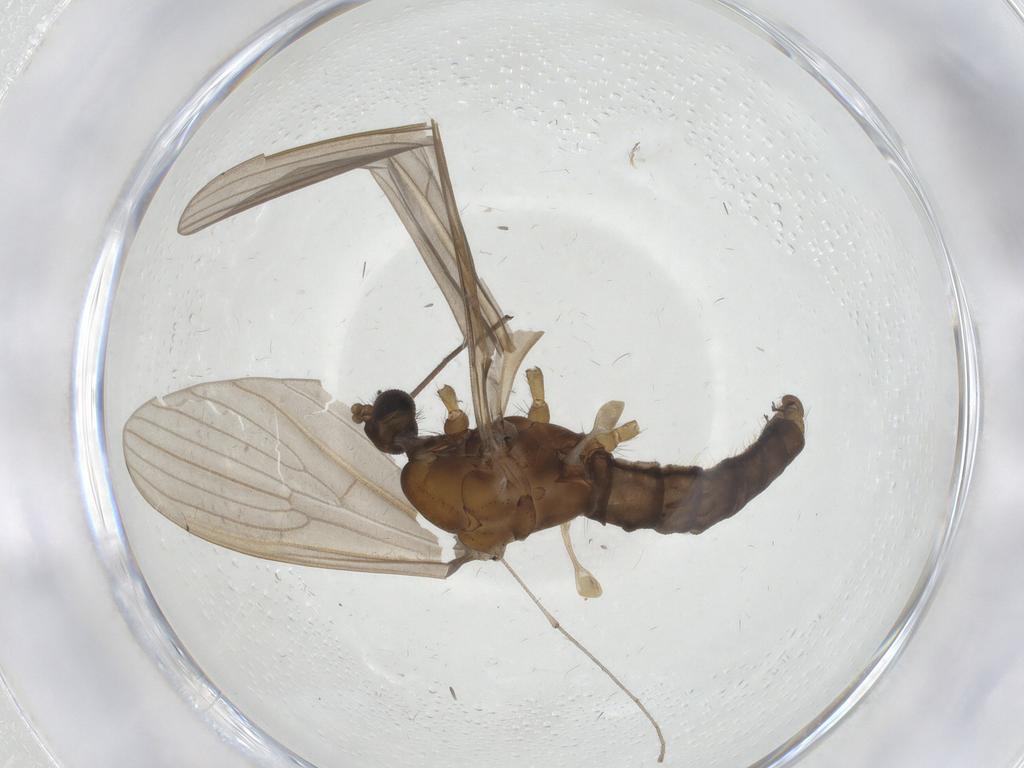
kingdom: Animalia
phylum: Arthropoda
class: Insecta
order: Diptera
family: Limoniidae
